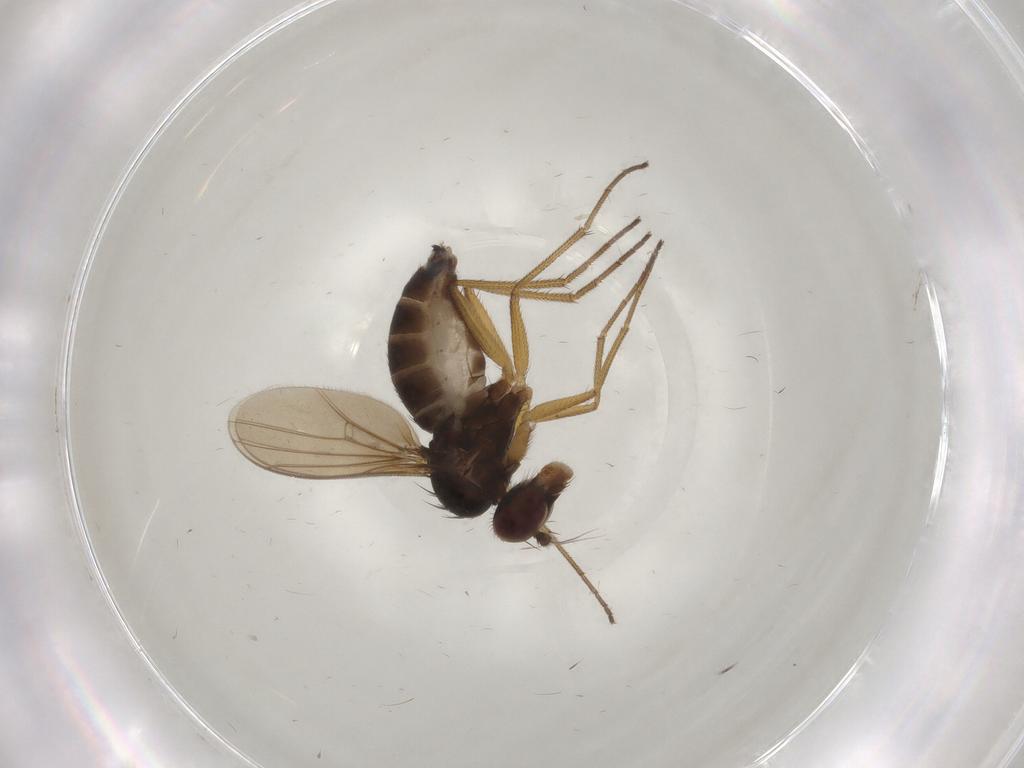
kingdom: Animalia
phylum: Arthropoda
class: Insecta
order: Diptera
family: Dolichopodidae
